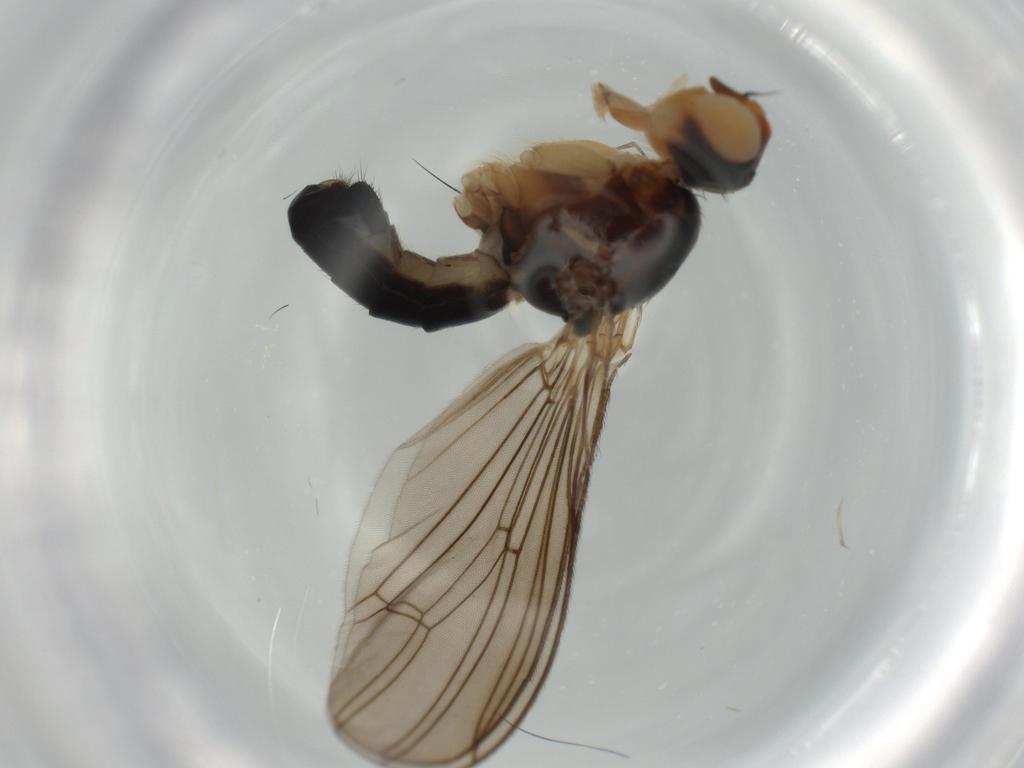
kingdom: Animalia
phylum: Arthropoda
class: Insecta
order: Diptera
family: Scathophagidae
